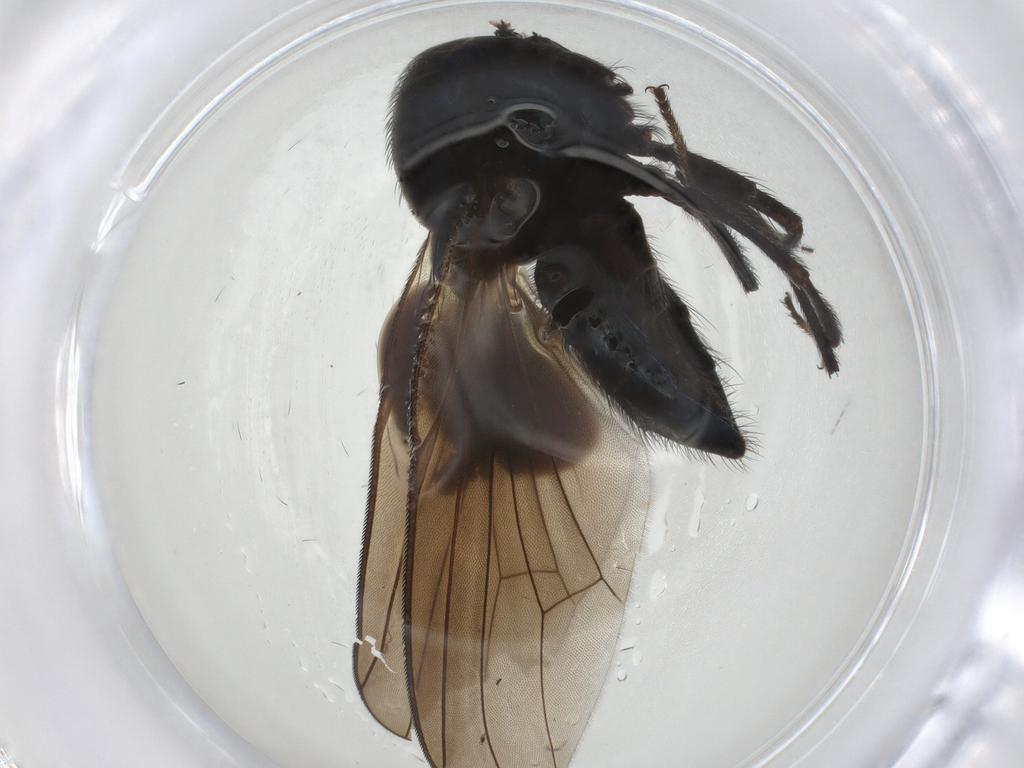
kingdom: Animalia
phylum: Arthropoda
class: Insecta
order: Diptera
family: Lonchaeidae
